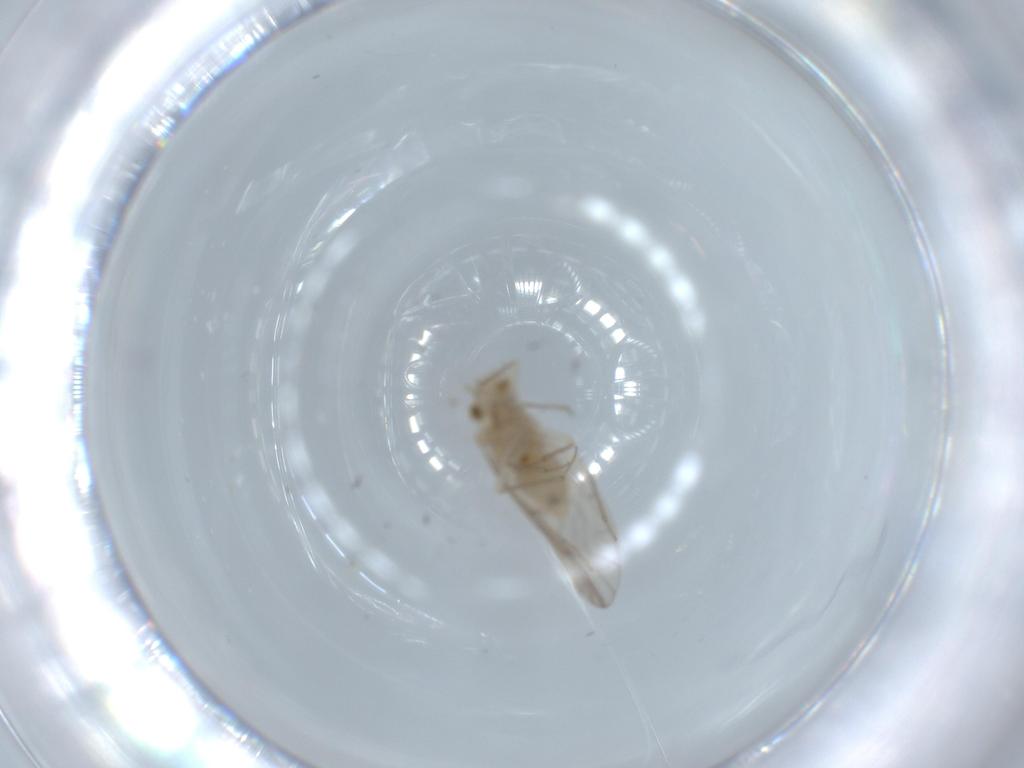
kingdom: Animalia
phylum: Arthropoda
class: Insecta
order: Psocodea
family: Lachesillidae
